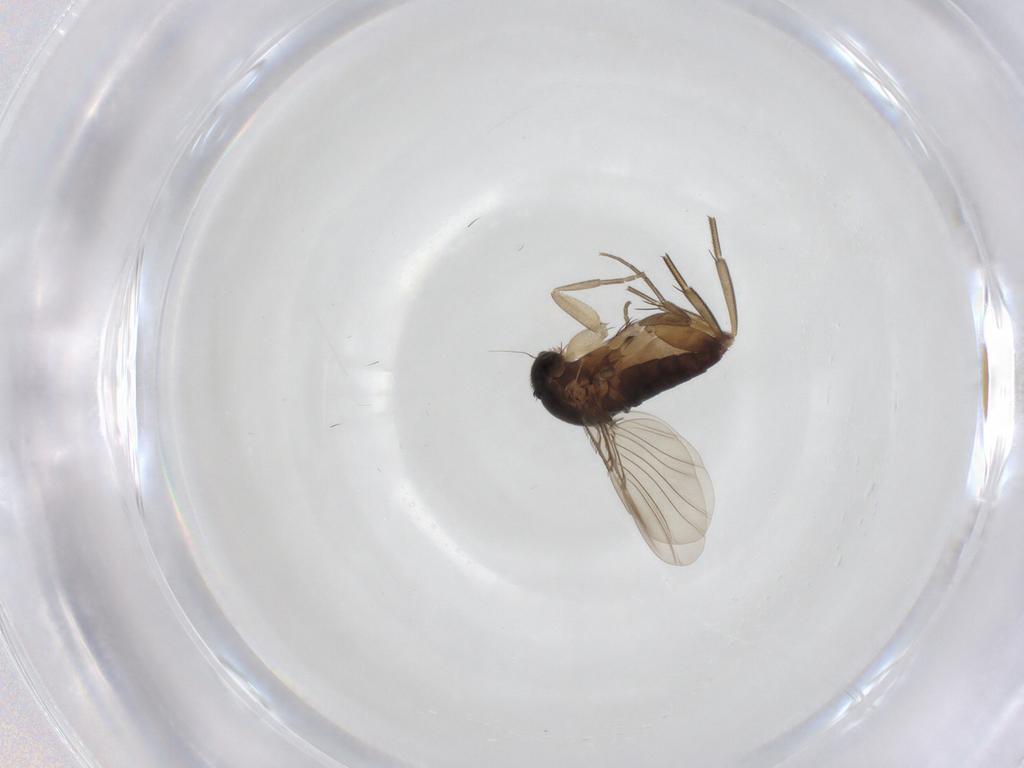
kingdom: Animalia
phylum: Arthropoda
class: Insecta
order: Diptera
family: Phoridae
